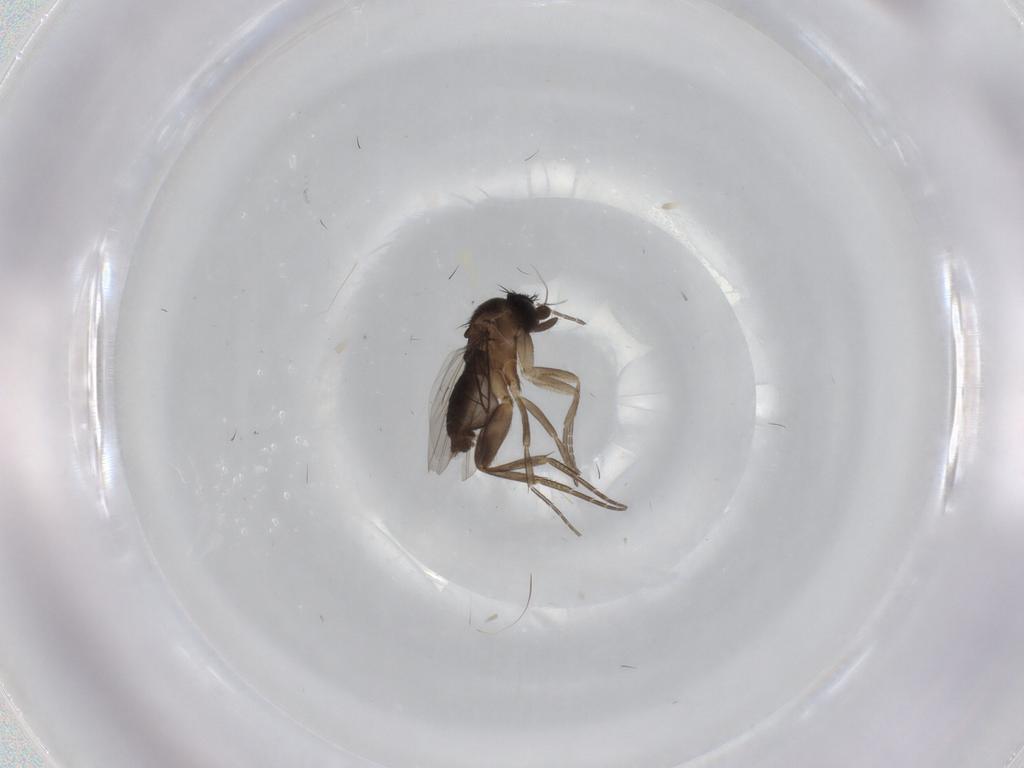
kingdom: Animalia
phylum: Arthropoda
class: Insecta
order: Diptera
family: Phoridae
